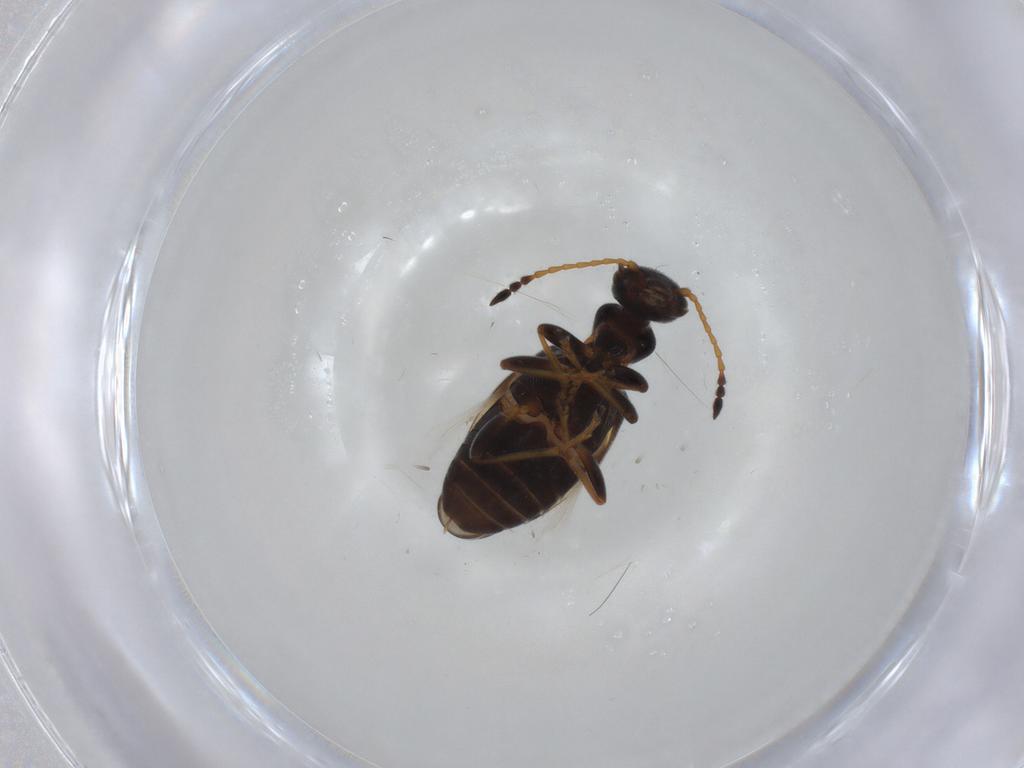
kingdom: Animalia
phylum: Arthropoda
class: Insecta
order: Coleoptera
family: Anthicidae
